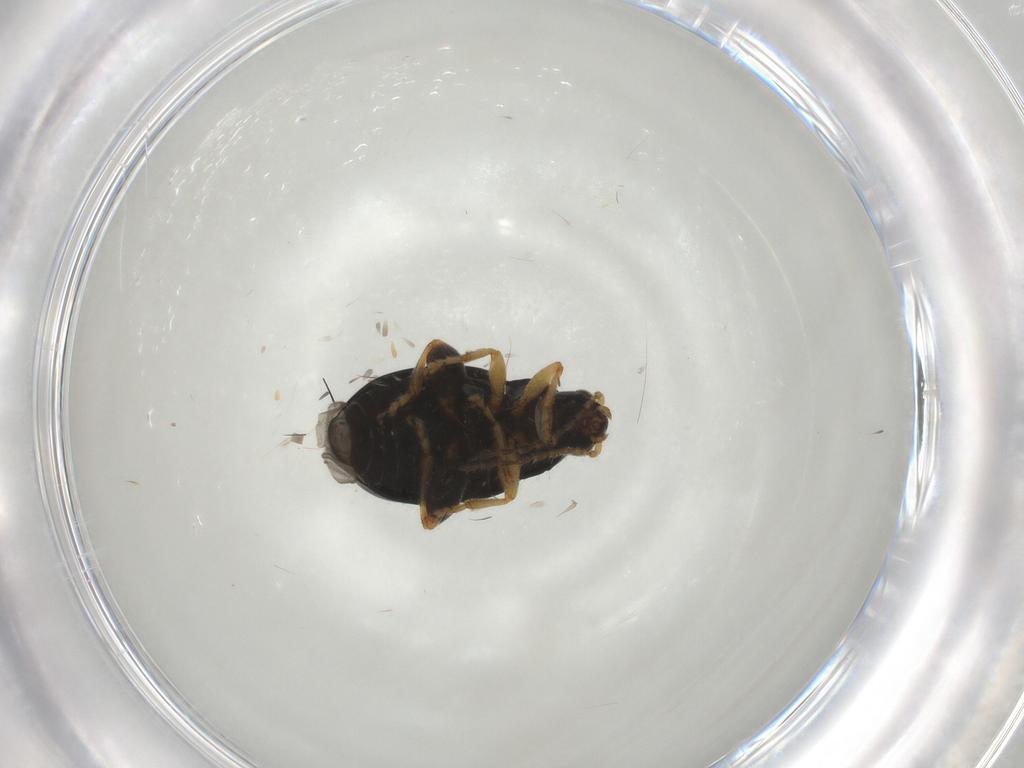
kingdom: Animalia
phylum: Arthropoda
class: Insecta
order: Coleoptera
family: Chrysomelidae
